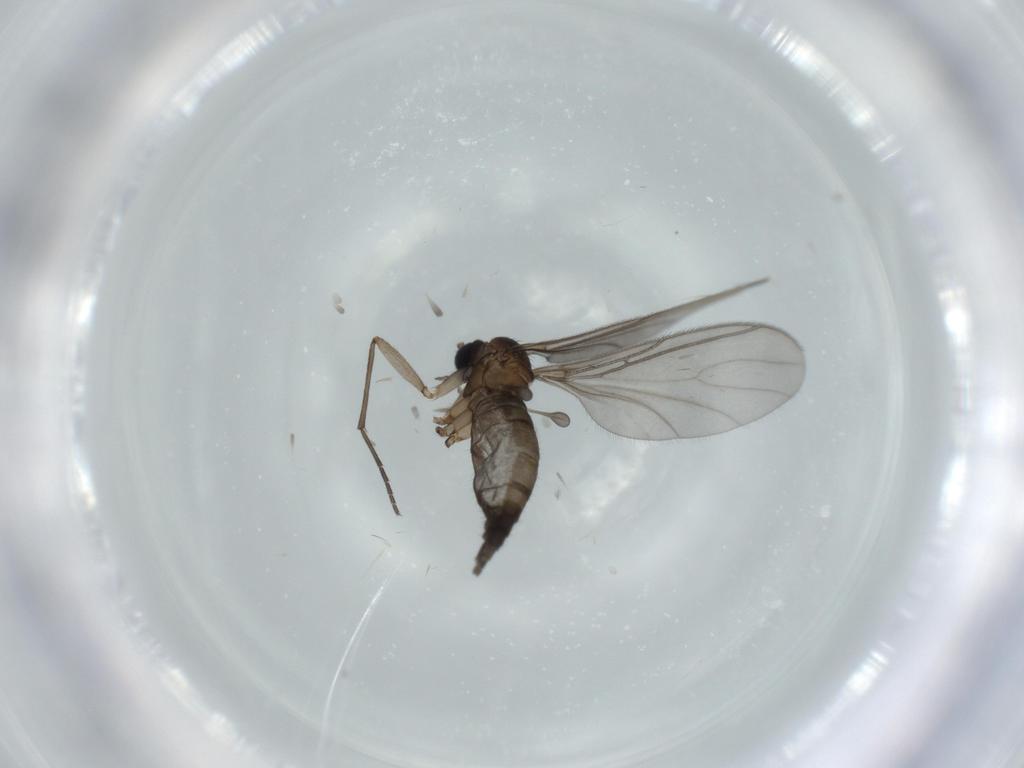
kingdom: Animalia
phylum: Arthropoda
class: Insecta
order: Diptera
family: Sciaridae
